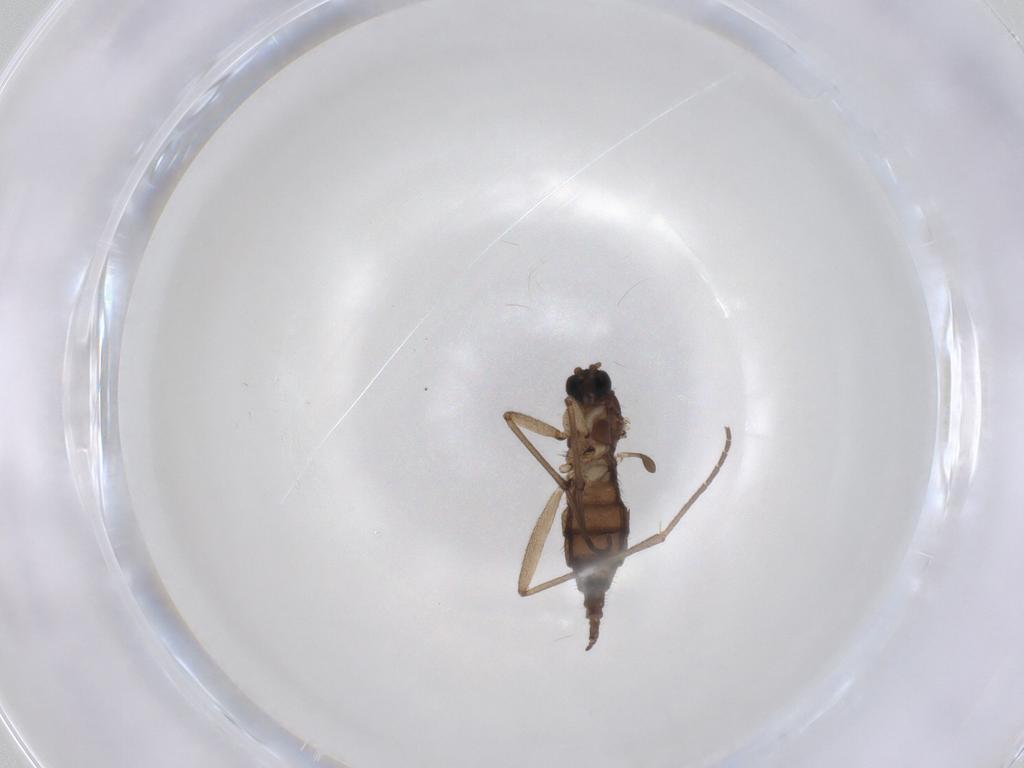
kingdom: Animalia
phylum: Arthropoda
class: Insecta
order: Diptera
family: Sciaridae
